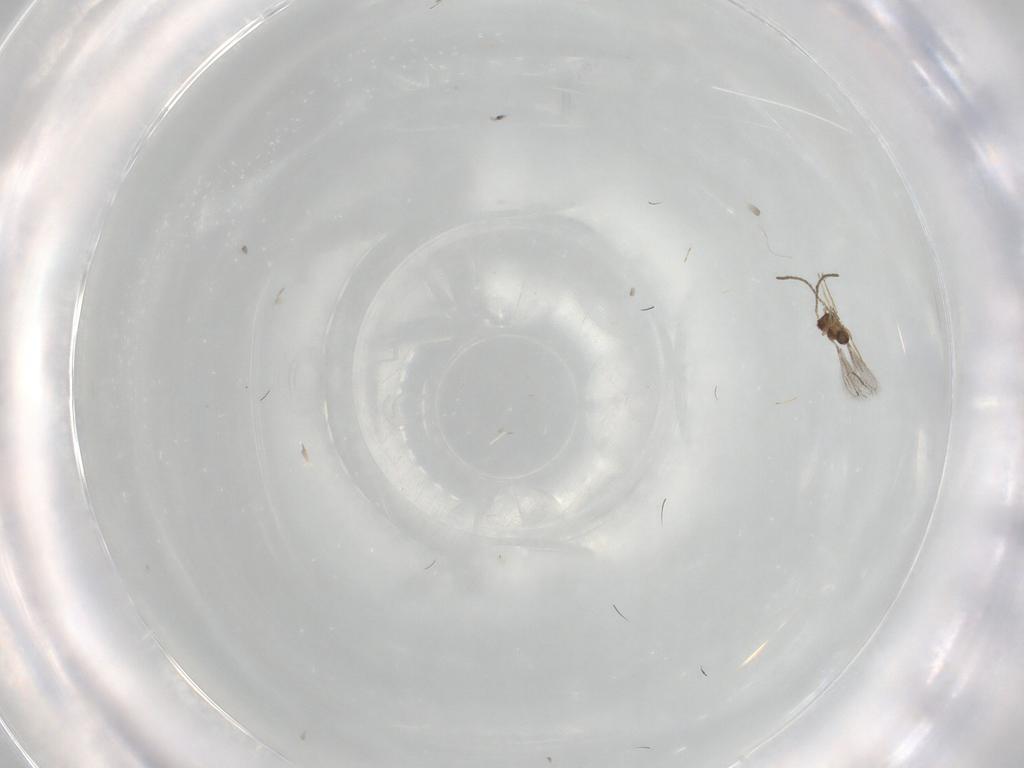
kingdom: Animalia
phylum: Arthropoda
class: Insecta
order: Hymenoptera
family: Mymaridae
